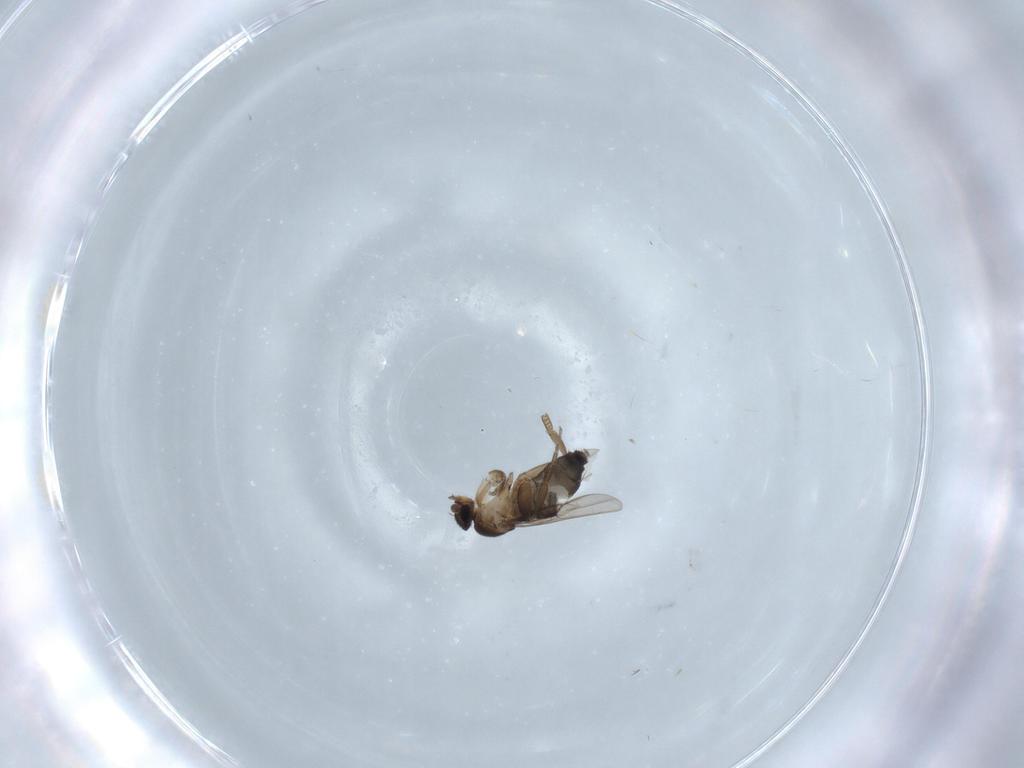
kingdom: Animalia
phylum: Arthropoda
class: Insecta
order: Diptera
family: Phoridae
